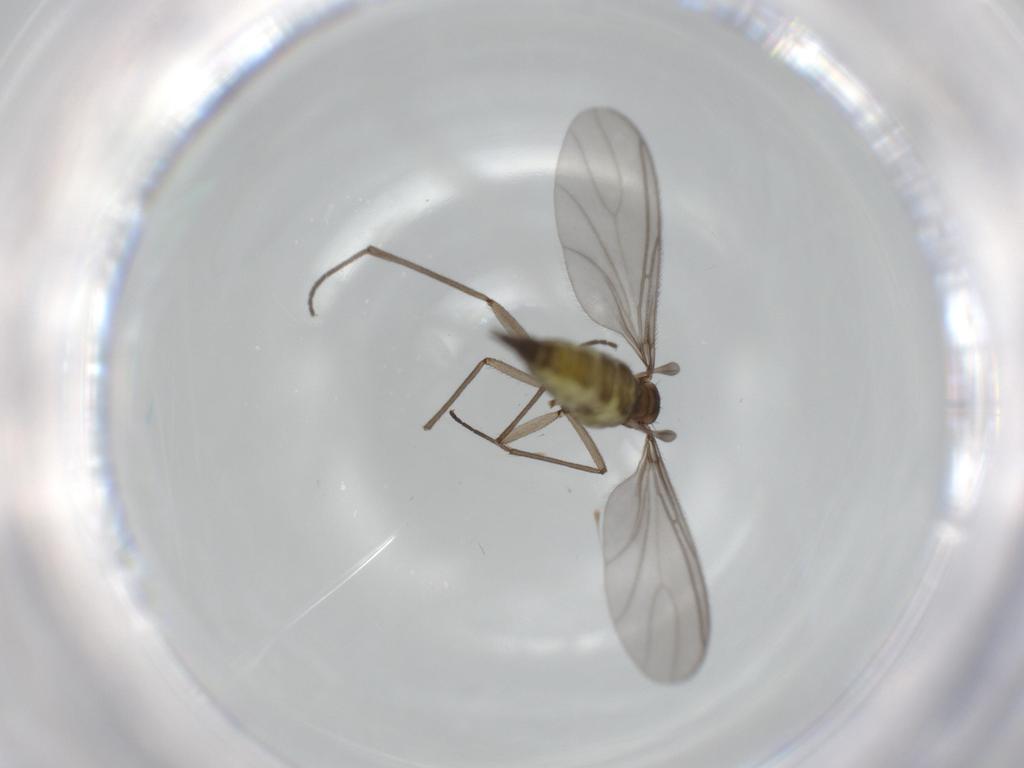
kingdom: Animalia
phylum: Arthropoda
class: Insecta
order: Diptera
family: Sciaridae
